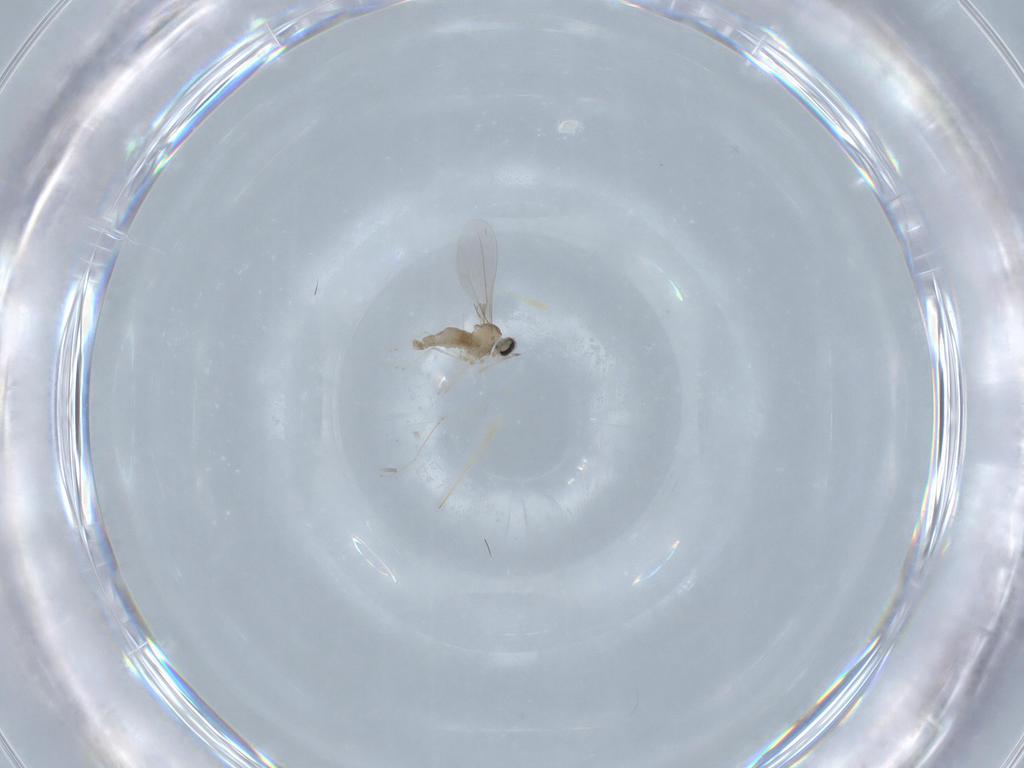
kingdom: Animalia
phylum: Arthropoda
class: Insecta
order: Diptera
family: Cecidomyiidae
